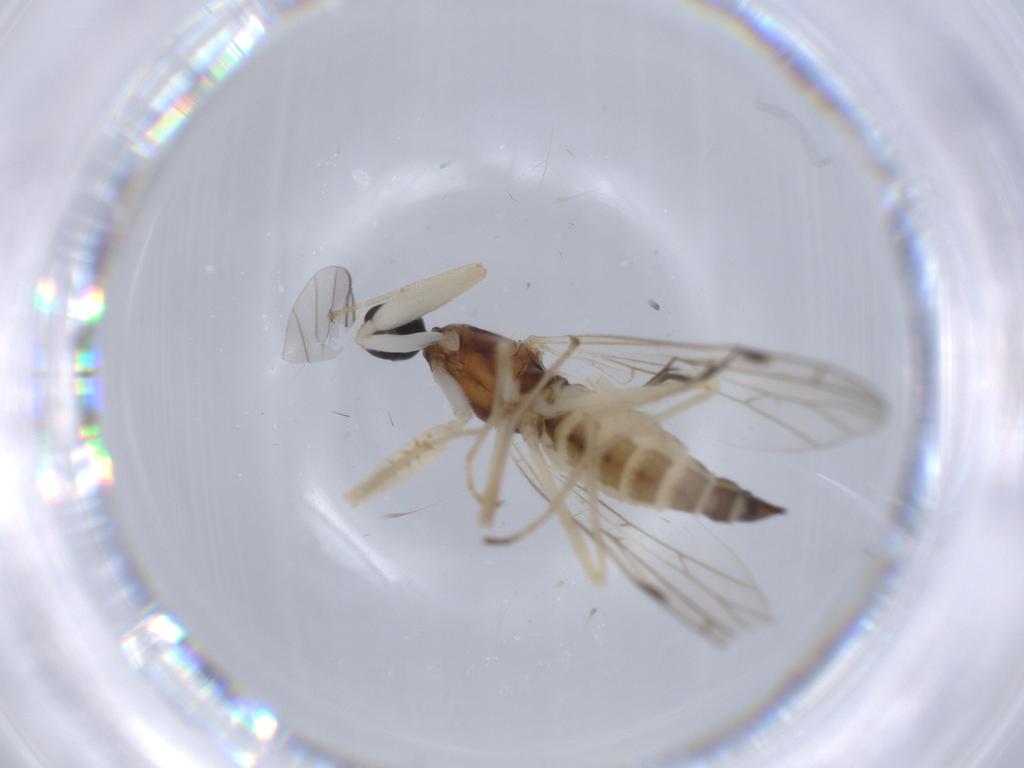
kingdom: Animalia
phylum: Arthropoda
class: Insecta
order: Diptera
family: Empididae
